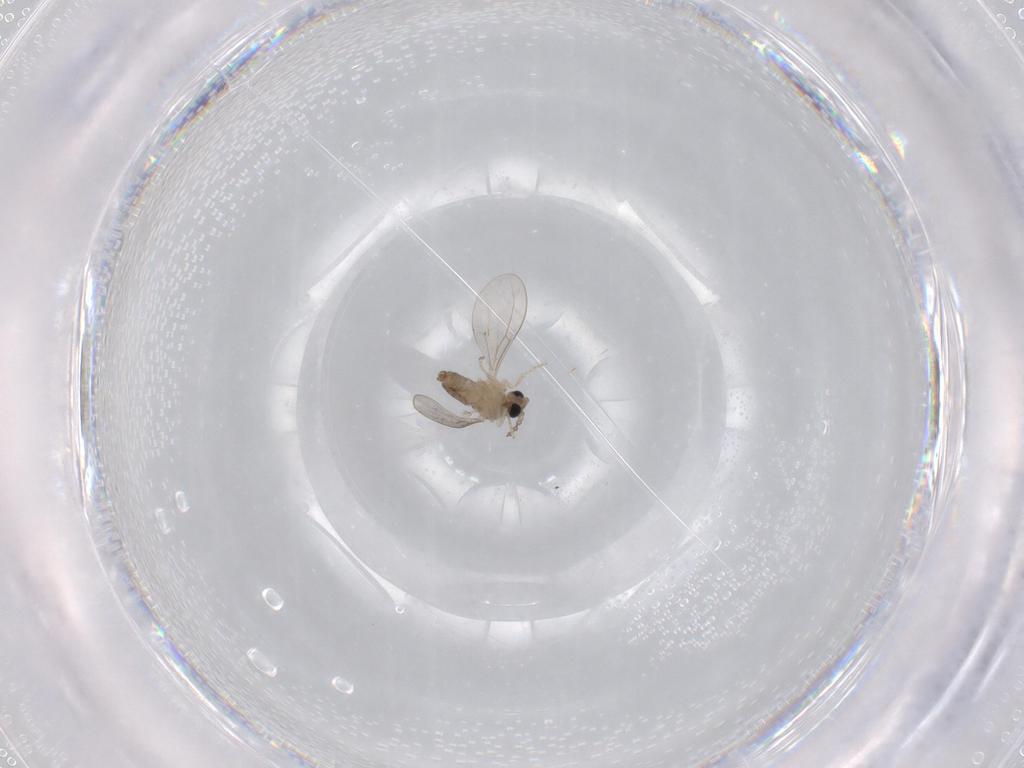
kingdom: Animalia
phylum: Arthropoda
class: Insecta
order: Diptera
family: Cecidomyiidae
